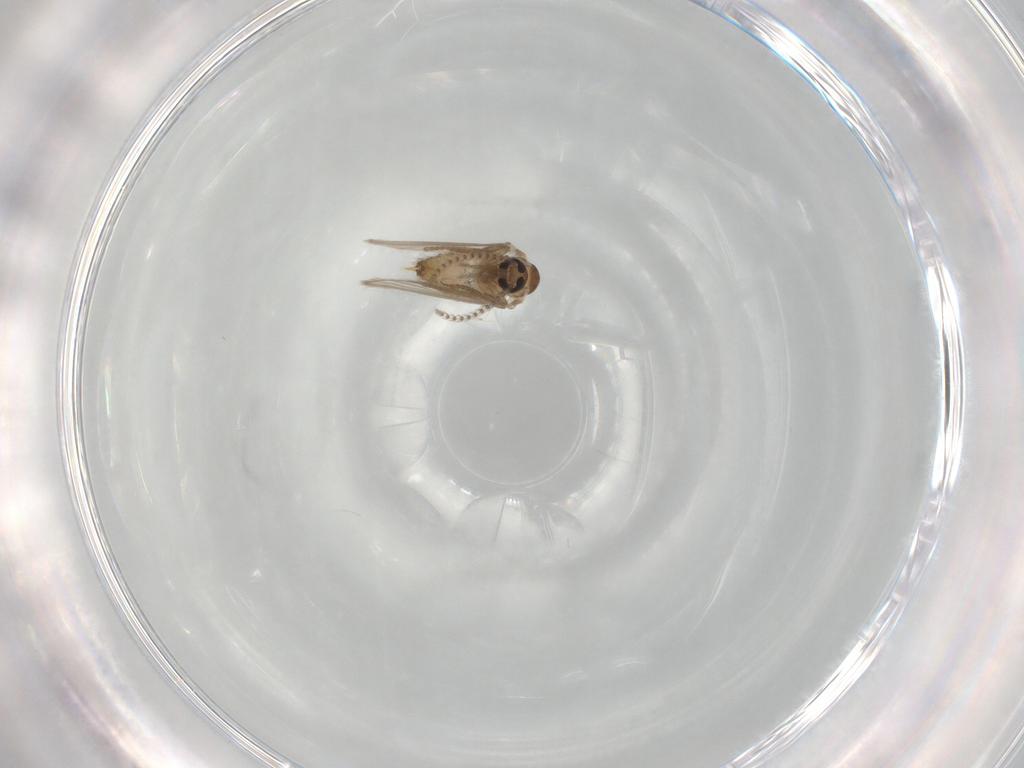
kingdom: Animalia
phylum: Arthropoda
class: Insecta
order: Diptera
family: Psychodidae
